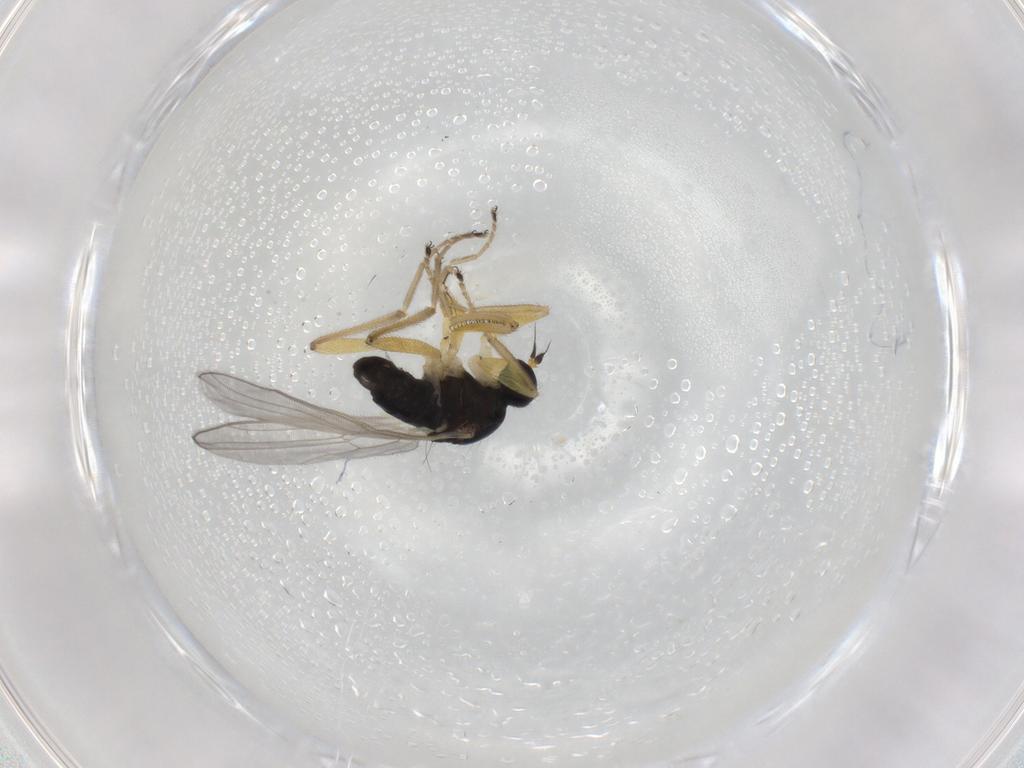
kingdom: Animalia
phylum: Arthropoda
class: Insecta
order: Diptera
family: Hybotidae
